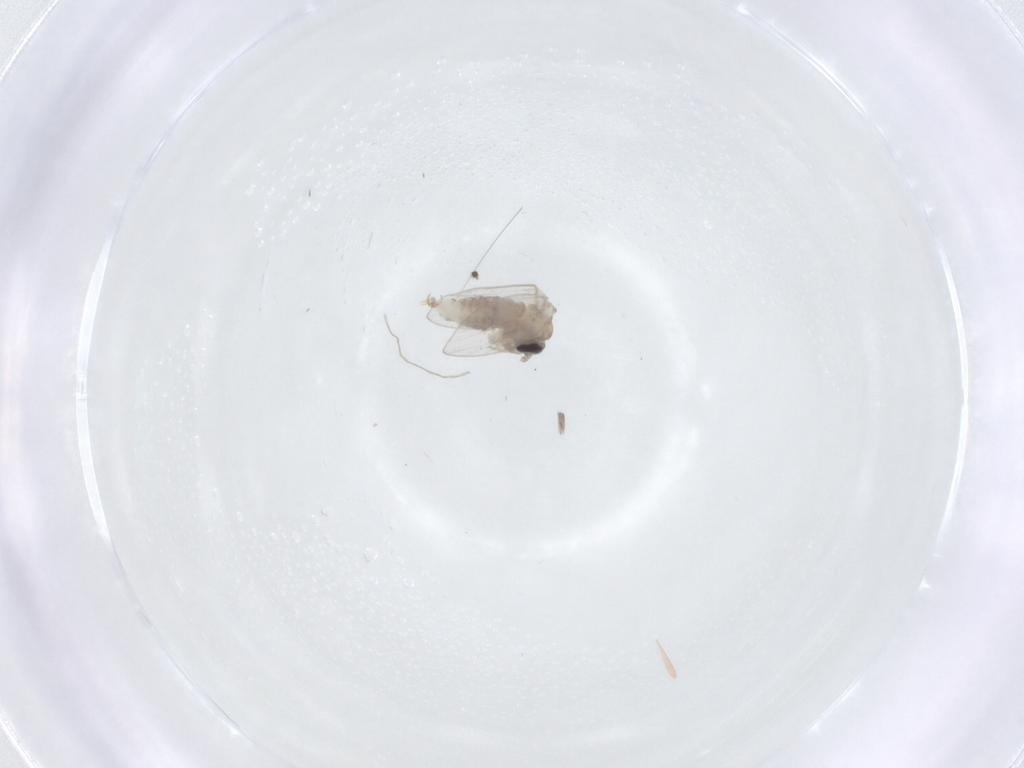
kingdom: Animalia
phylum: Arthropoda
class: Insecta
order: Diptera
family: Sciaridae
